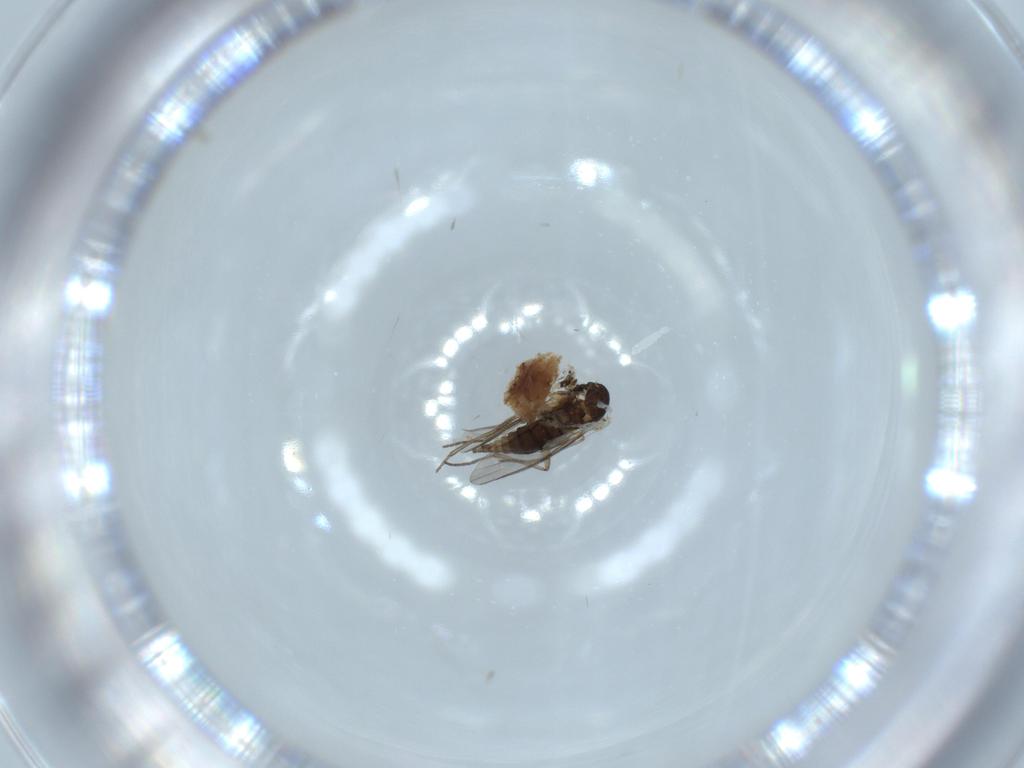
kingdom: Animalia
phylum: Arthropoda
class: Insecta
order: Diptera
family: Sciaridae
